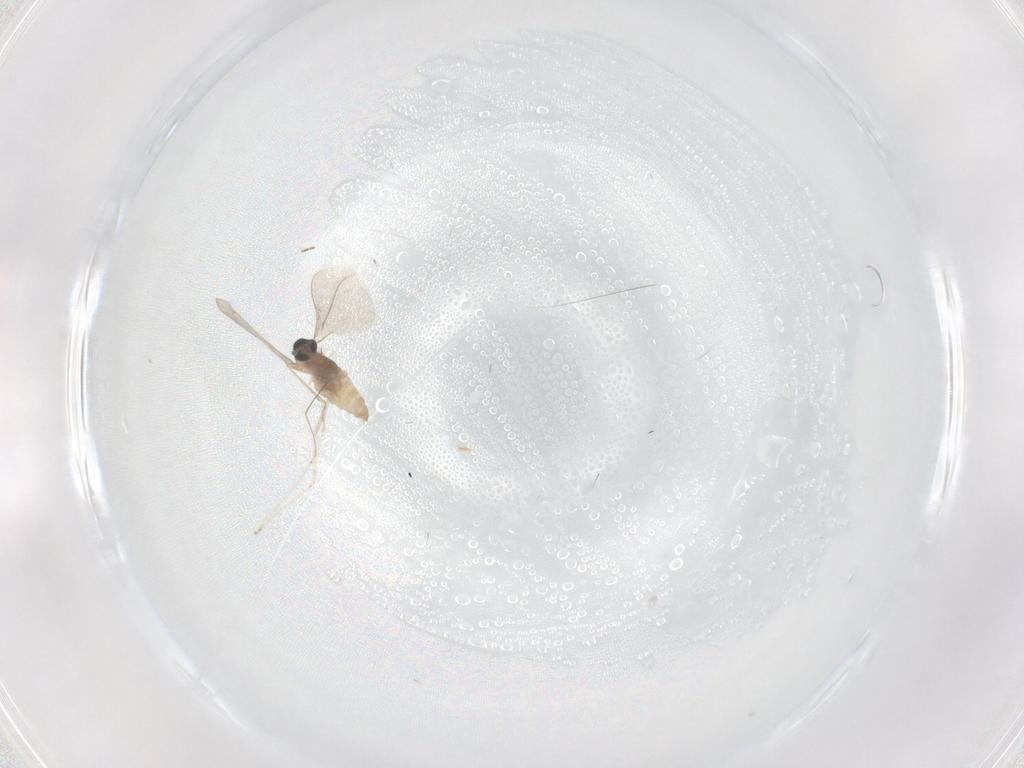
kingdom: Animalia
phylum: Arthropoda
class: Insecta
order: Diptera
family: Cecidomyiidae
